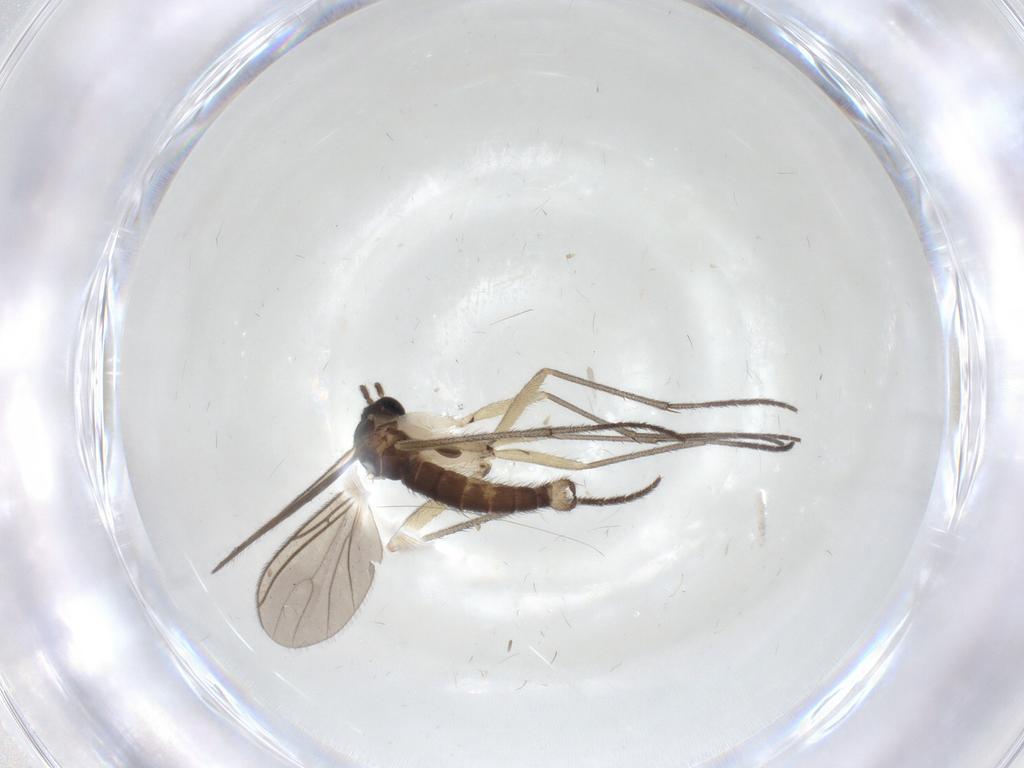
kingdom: Animalia
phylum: Arthropoda
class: Insecta
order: Diptera
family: Sciaridae
